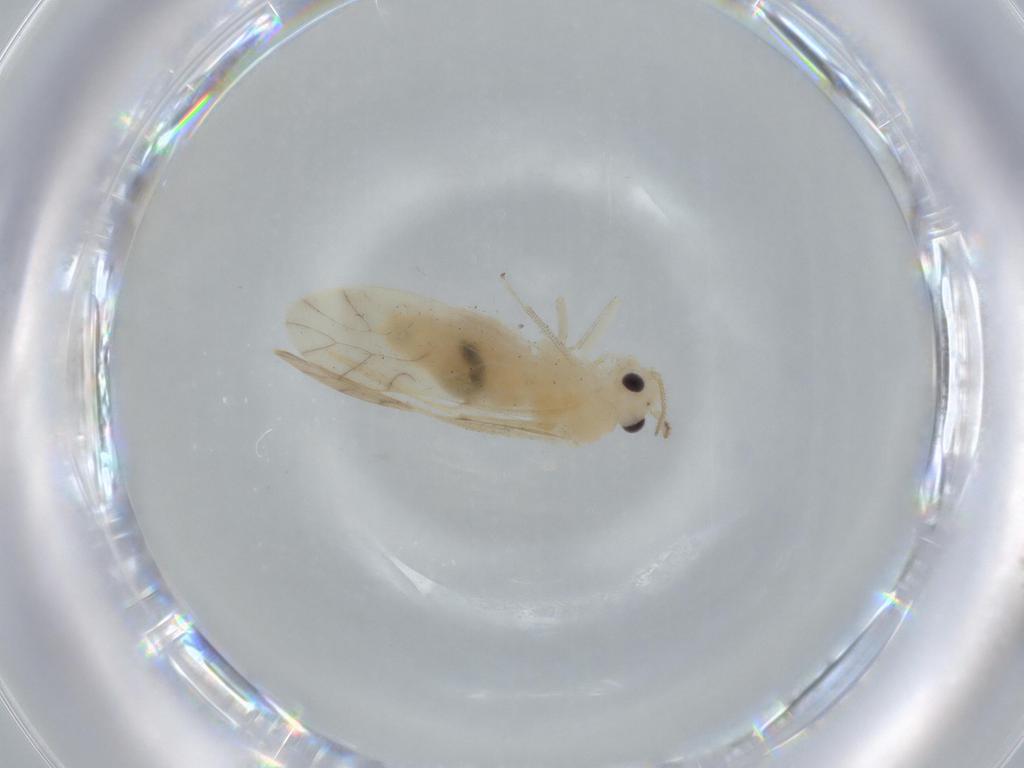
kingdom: Animalia
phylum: Arthropoda
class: Insecta
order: Psocodea
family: Caeciliusidae
